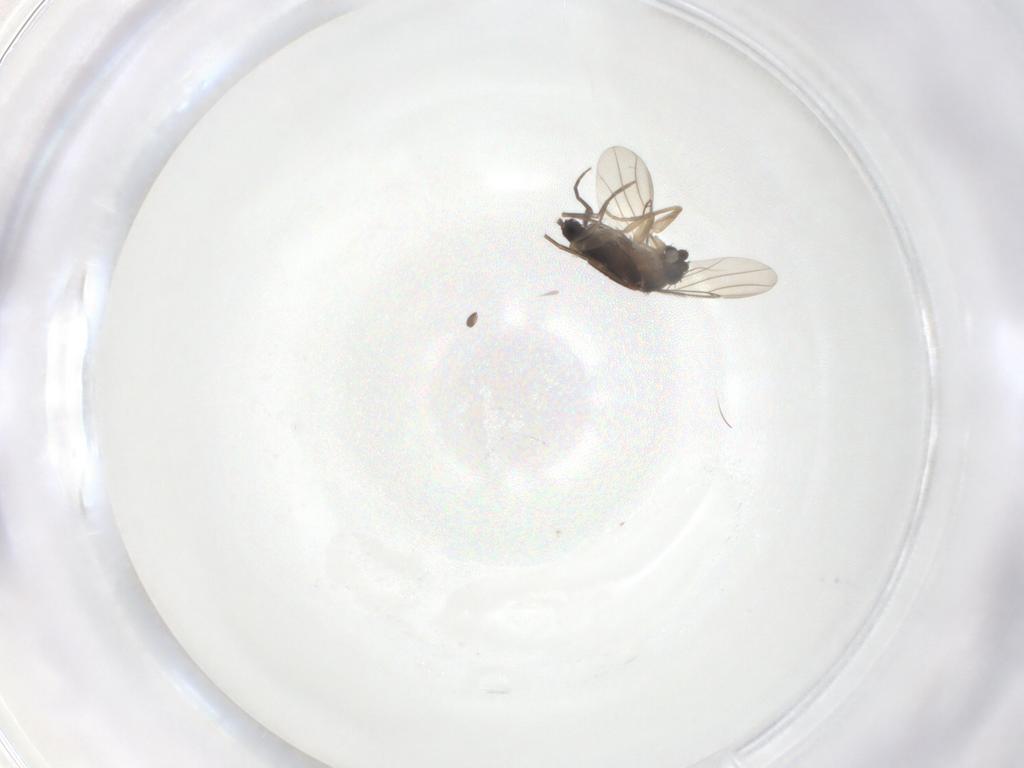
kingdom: Animalia
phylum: Arthropoda
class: Insecta
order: Diptera
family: Phoridae
